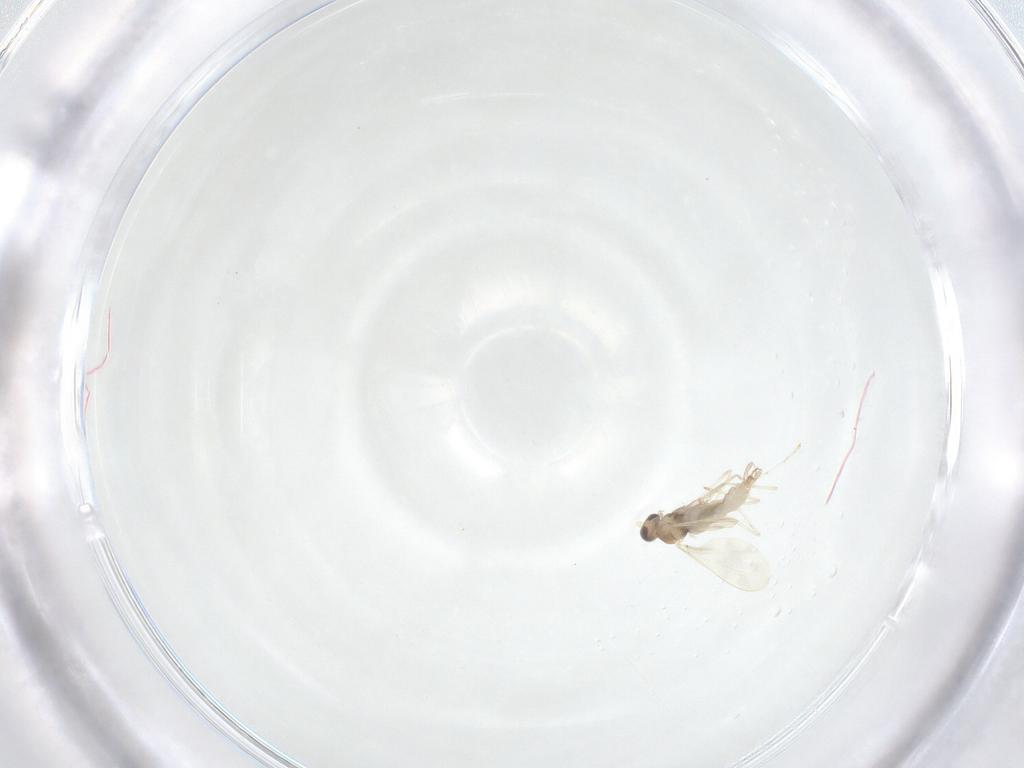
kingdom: Animalia
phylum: Arthropoda
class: Insecta
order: Diptera
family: Cecidomyiidae
